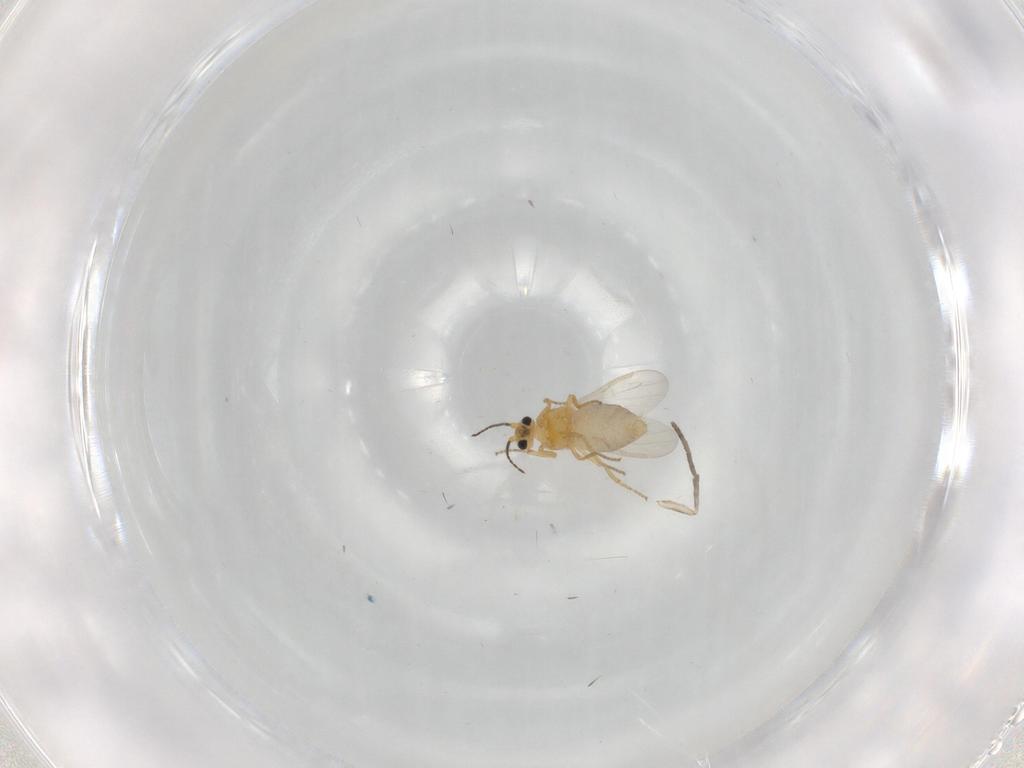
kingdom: Animalia
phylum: Arthropoda
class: Insecta
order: Diptera
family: Ceratopogonidae
